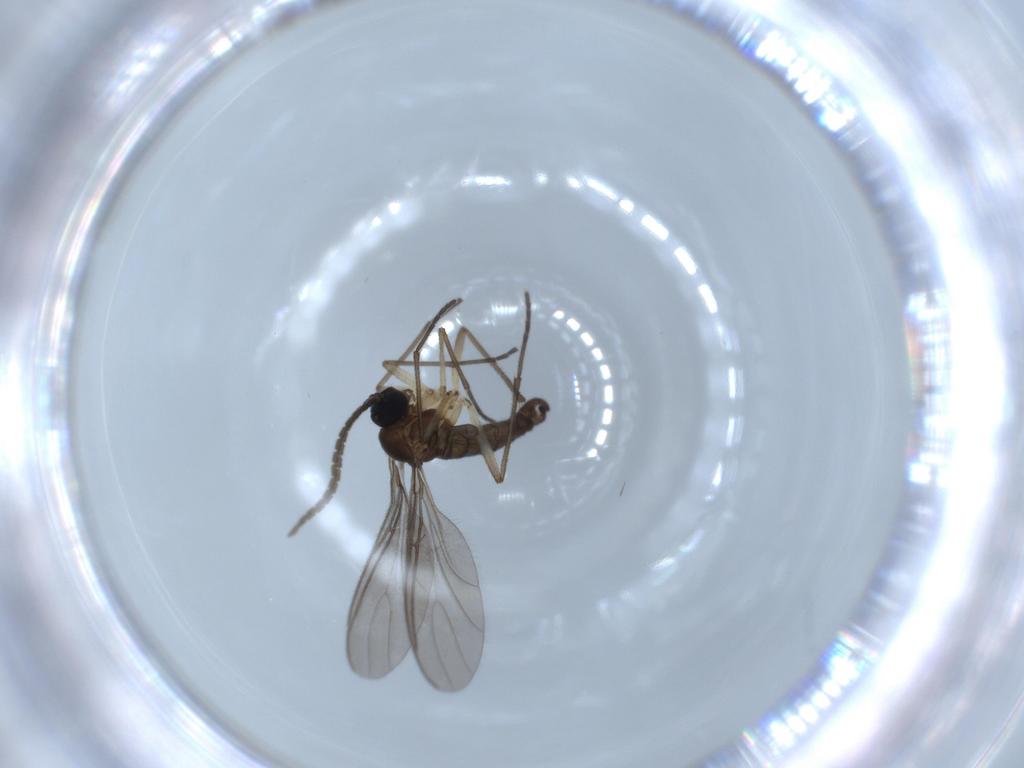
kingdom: Animalia
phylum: Arthropoda
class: Insecta
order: Diptera
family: Sciaridae
